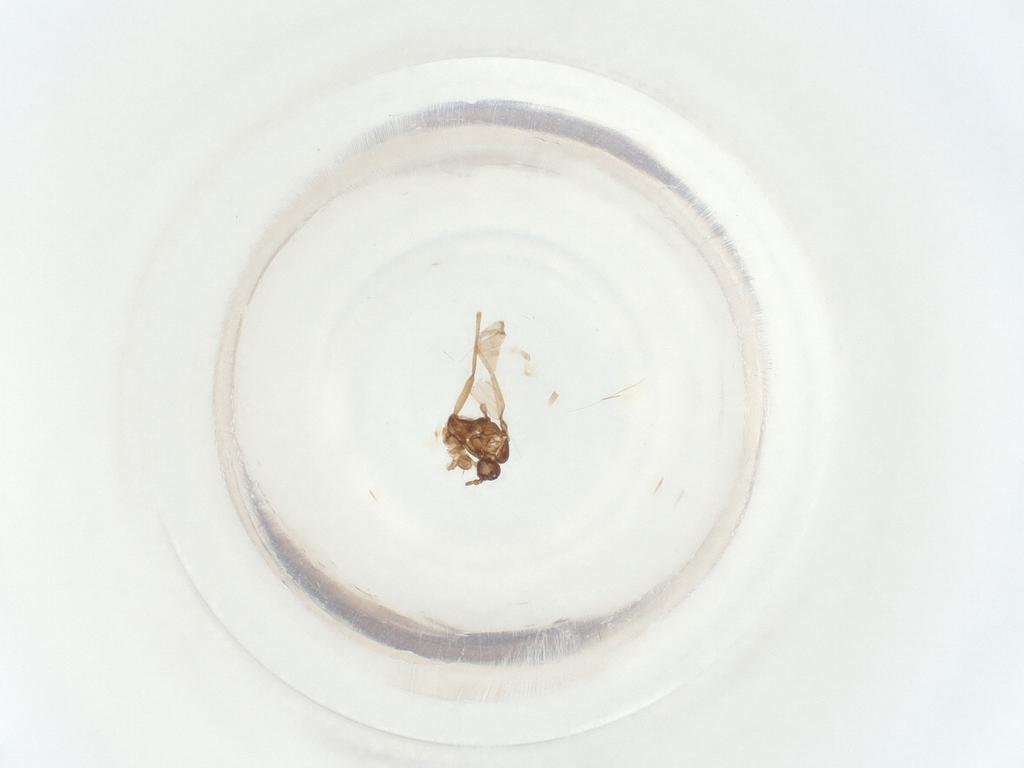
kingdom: Animalia
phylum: Arthropoda
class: Insecta
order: Diptera
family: Sciaridae
